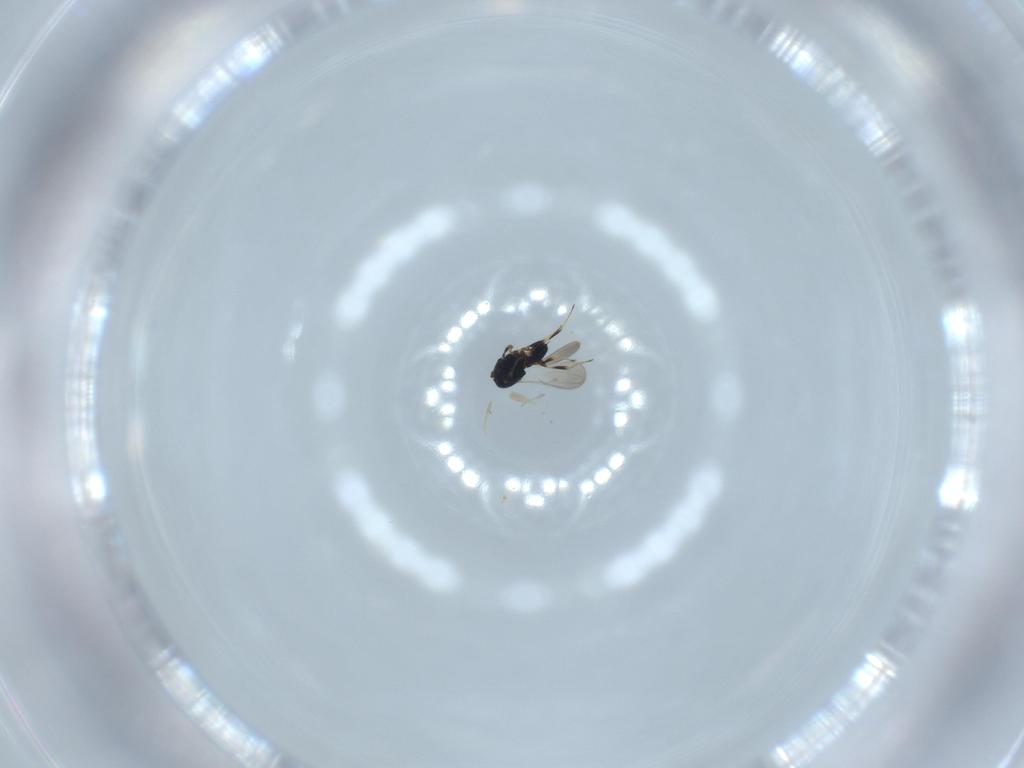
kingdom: Animalia
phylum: Arthropoda
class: Insecta
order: Hymenoptera
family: Scelionidae
